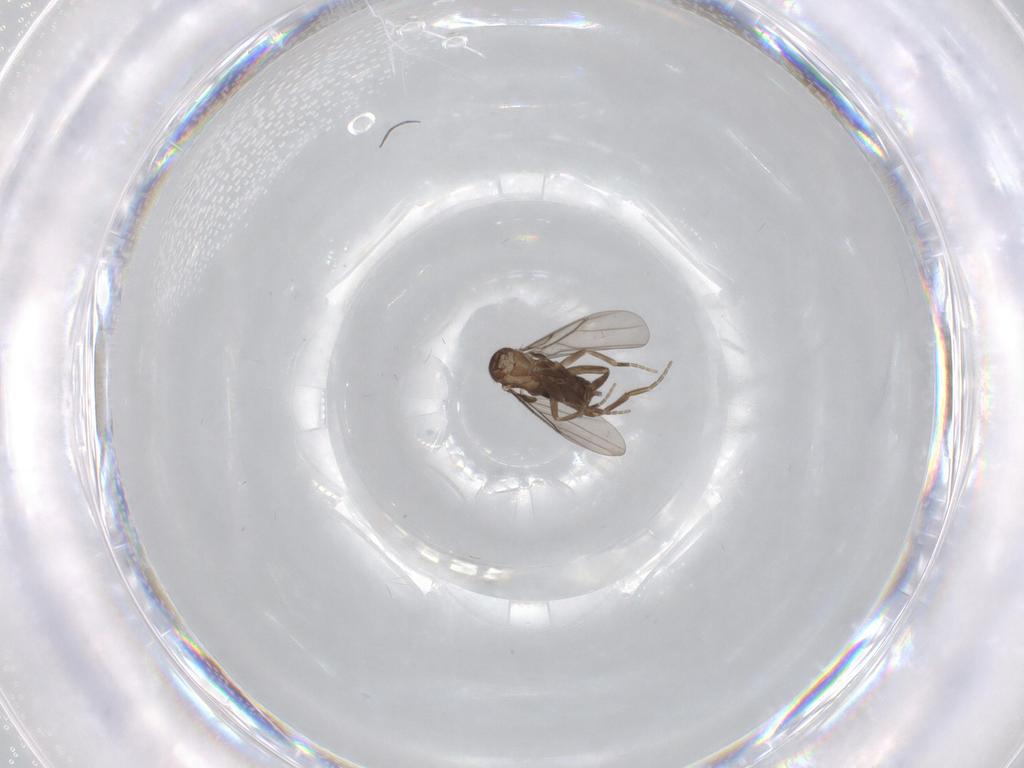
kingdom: Animalia
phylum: Arthropoda
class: Insecta
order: Diptera
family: Phoridae
